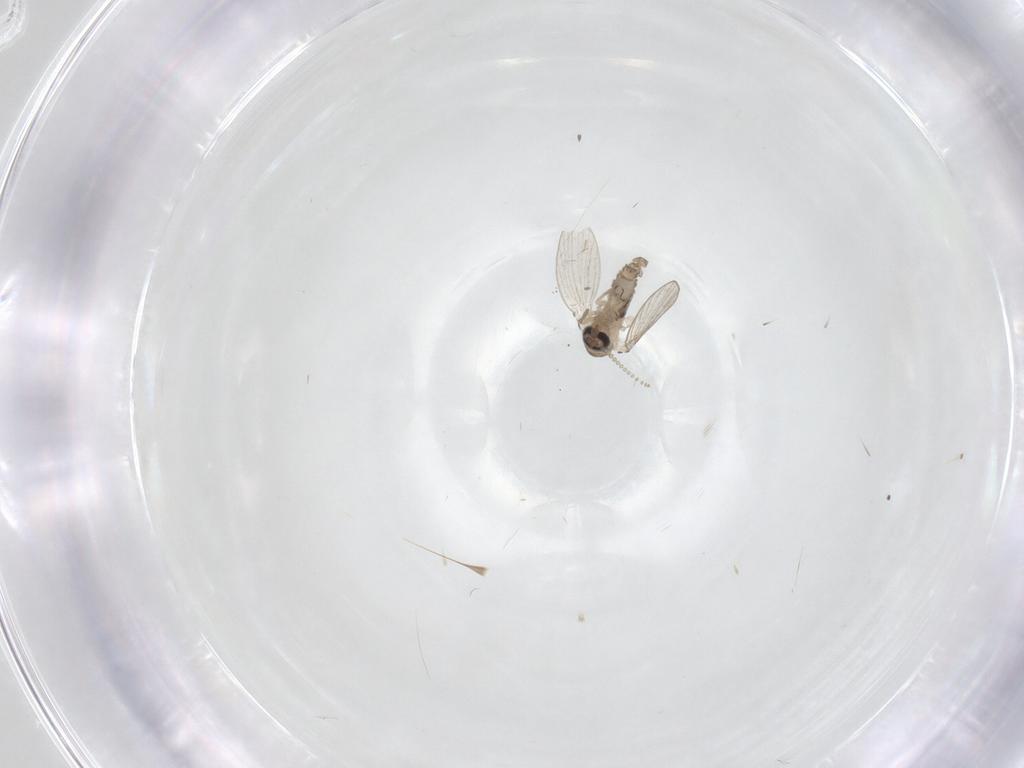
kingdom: Animalia
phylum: Arthropoda
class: Insecta
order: Diptera
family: Psychodidae
